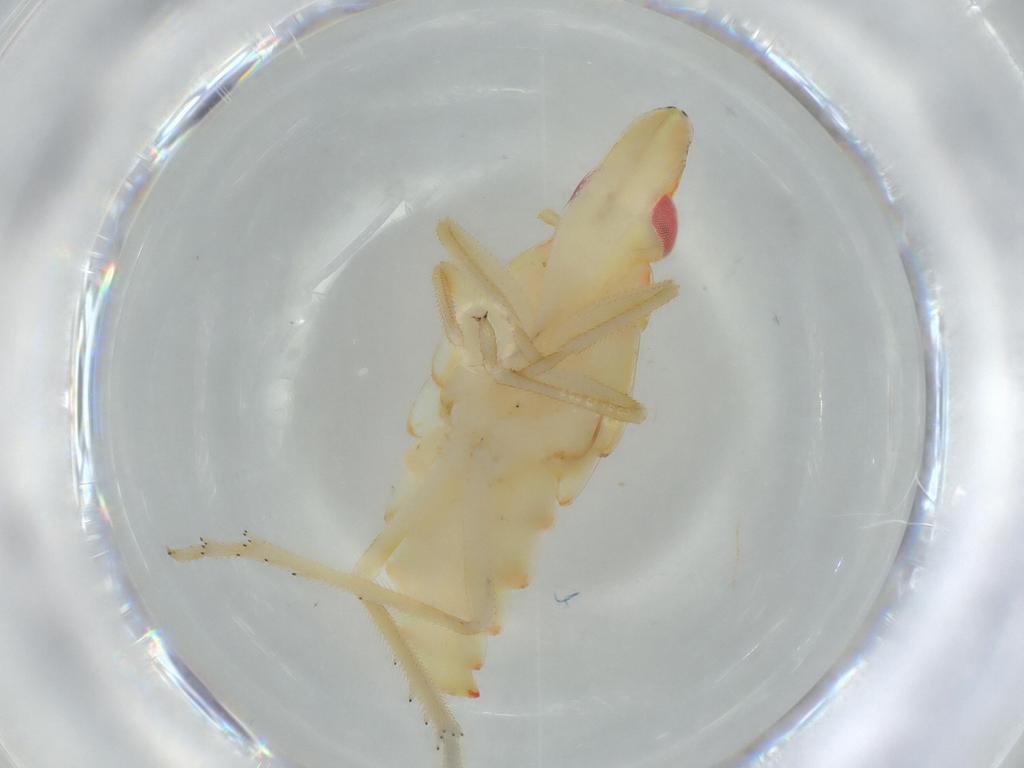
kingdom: Animalia
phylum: Arthropoda
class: Insecta
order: Hemiptera
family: Tropiduchidae
